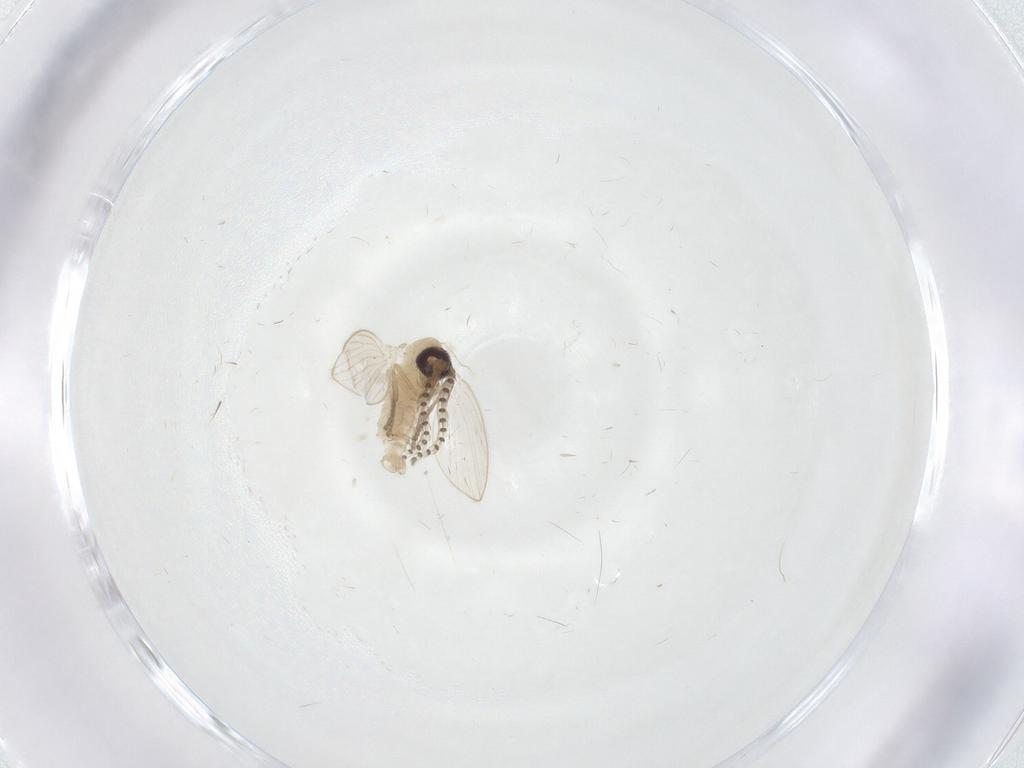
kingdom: Animalia
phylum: Arthropoda
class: Insecta
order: Diptera
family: Psychodidae
